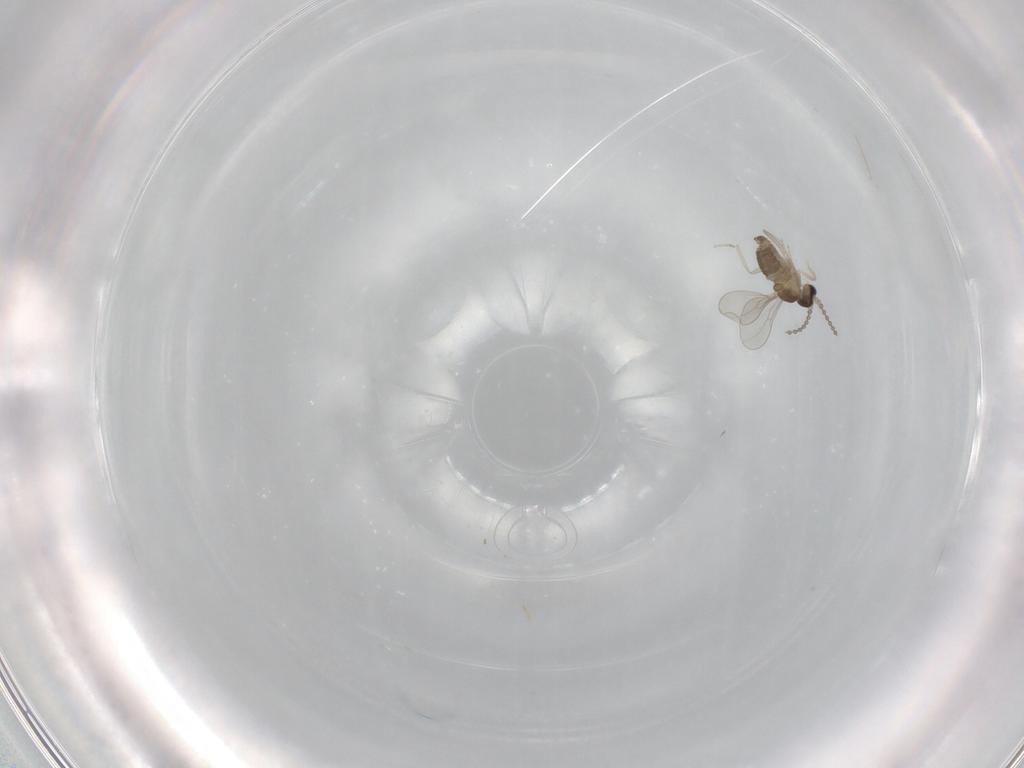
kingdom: Animalia
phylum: Arthropoda
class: Insecta
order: Diptera
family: Cecidomyiidae
